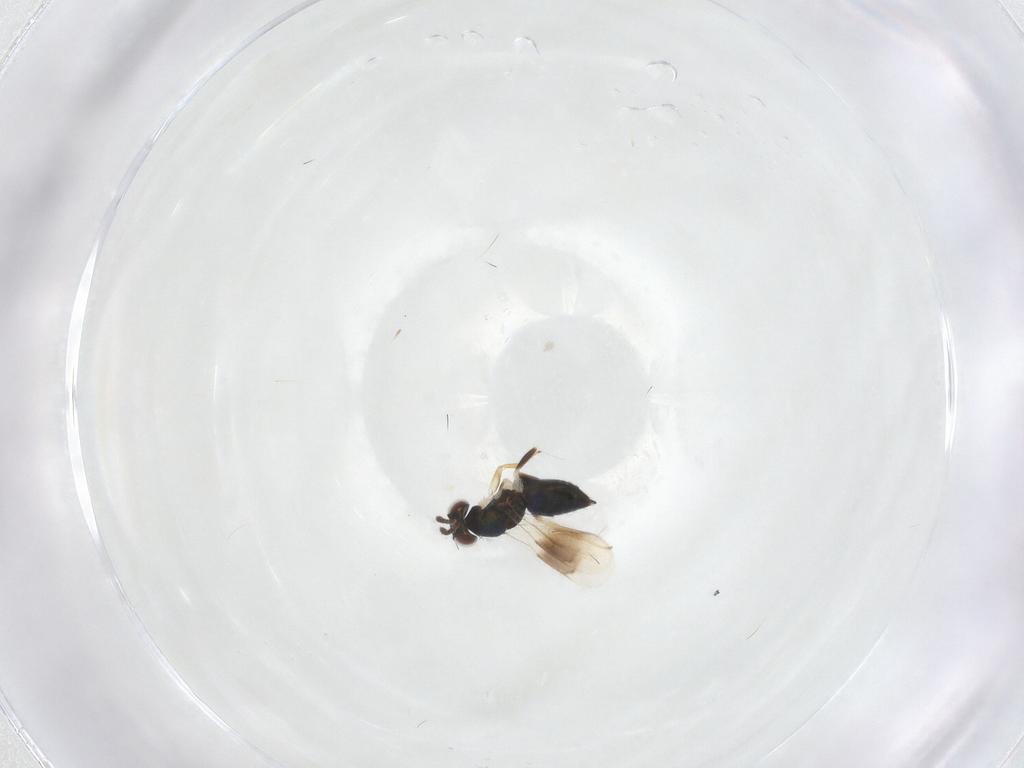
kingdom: Animalia
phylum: Arthropoda
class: Insecta
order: Hymenoptera
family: Eulophidae
